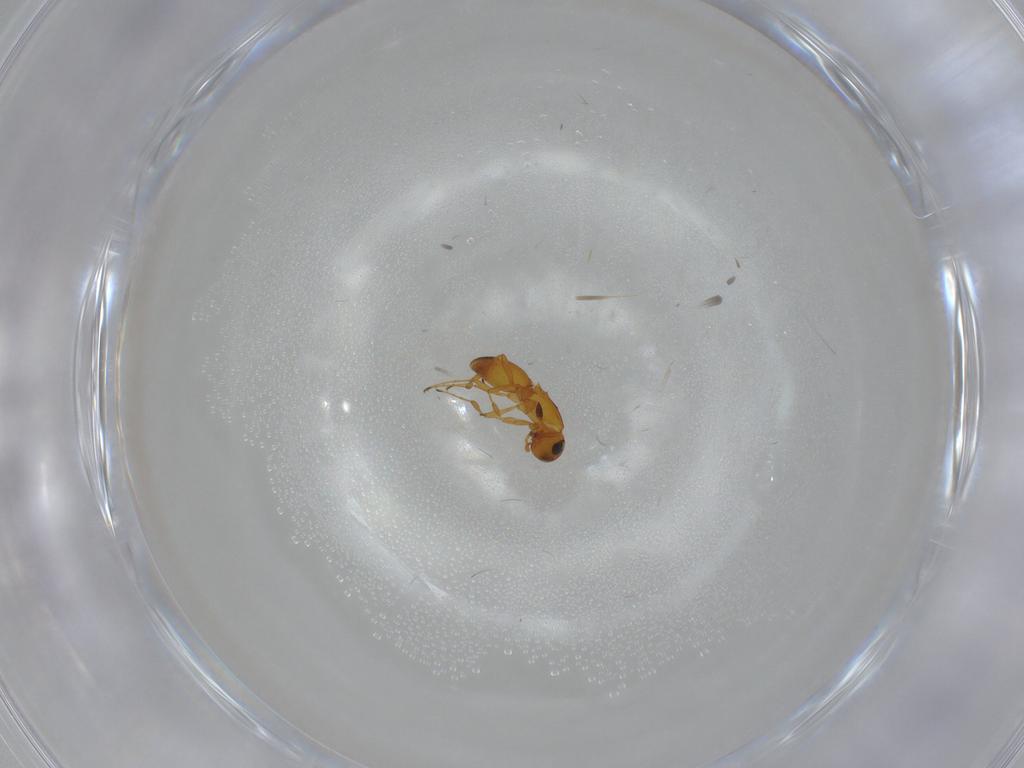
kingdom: Animalia
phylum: Arthropoda
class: Insecta
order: Hymenoptera
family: Platygastridae
